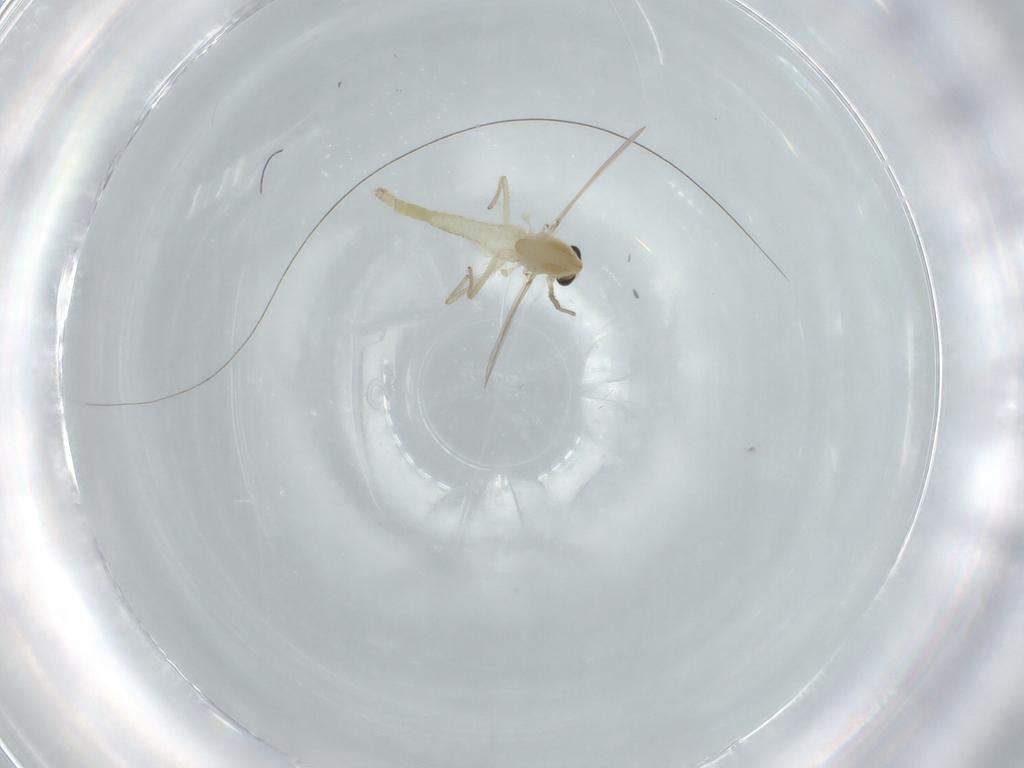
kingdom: Animalia
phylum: Arthropoda
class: Insecta
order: Diptera
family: Chironomidae
